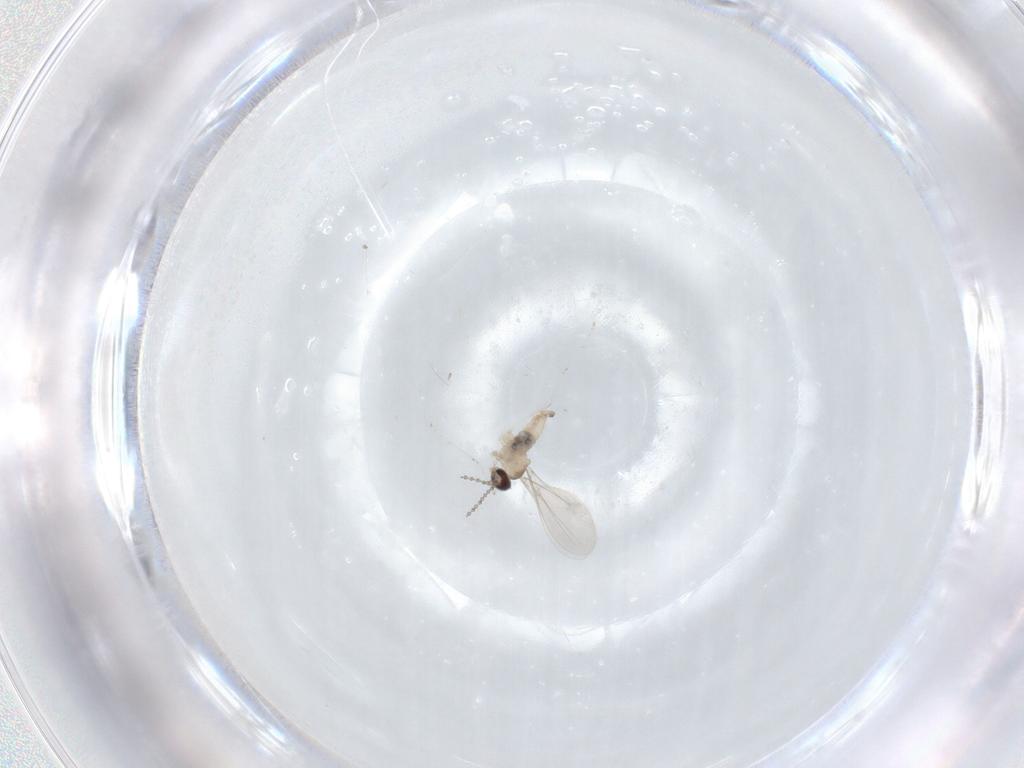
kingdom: Animalia
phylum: Arthropoda
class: Insecta
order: Diptera
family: Cecidomyiidae
